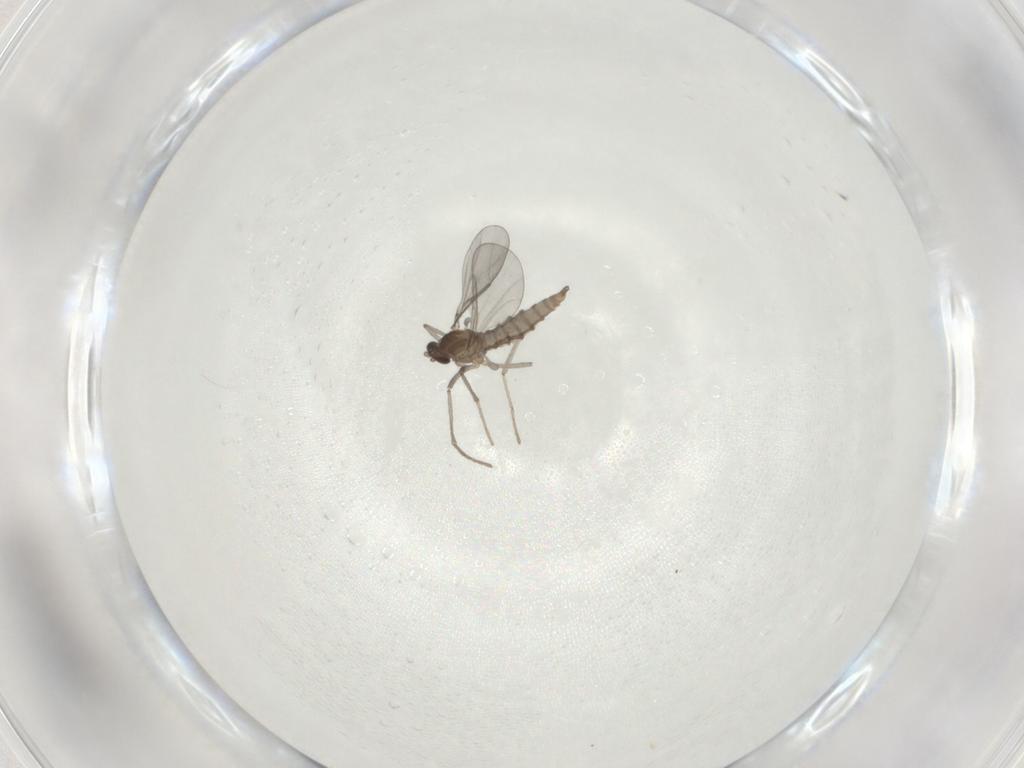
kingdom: Animalia
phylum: Arthropoda
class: Insecta
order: Diptera
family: Cecidomyiidae
